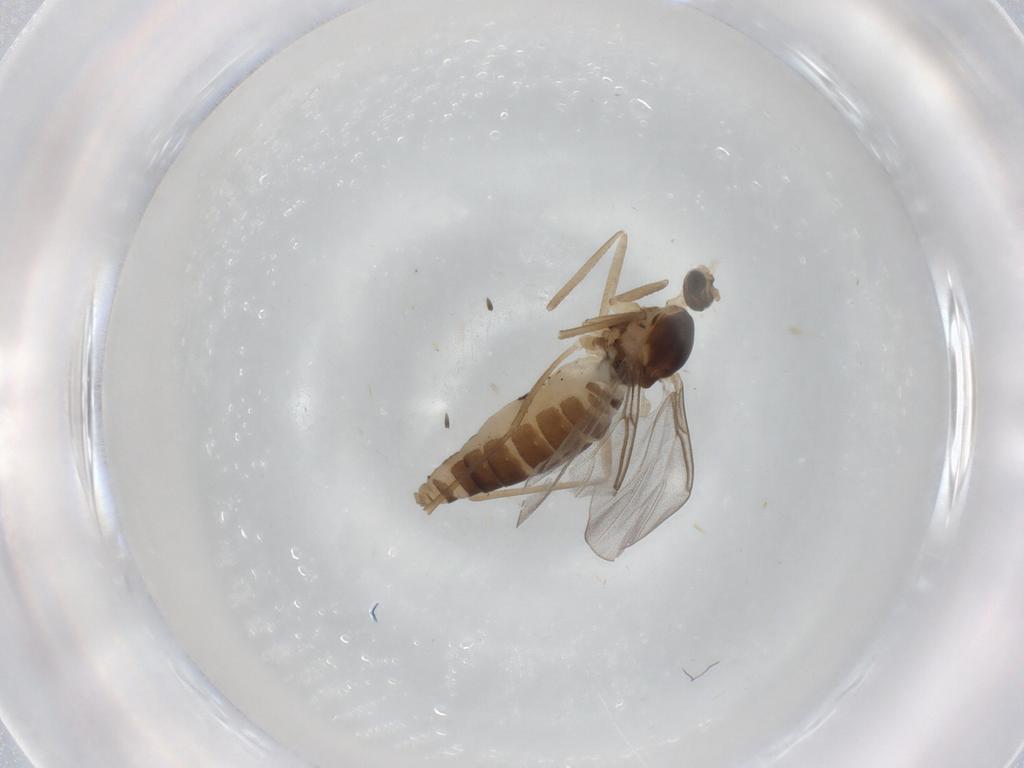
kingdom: Animalia
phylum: Arthropoda
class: Insecta
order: Diptera
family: Cecidomyiidae
